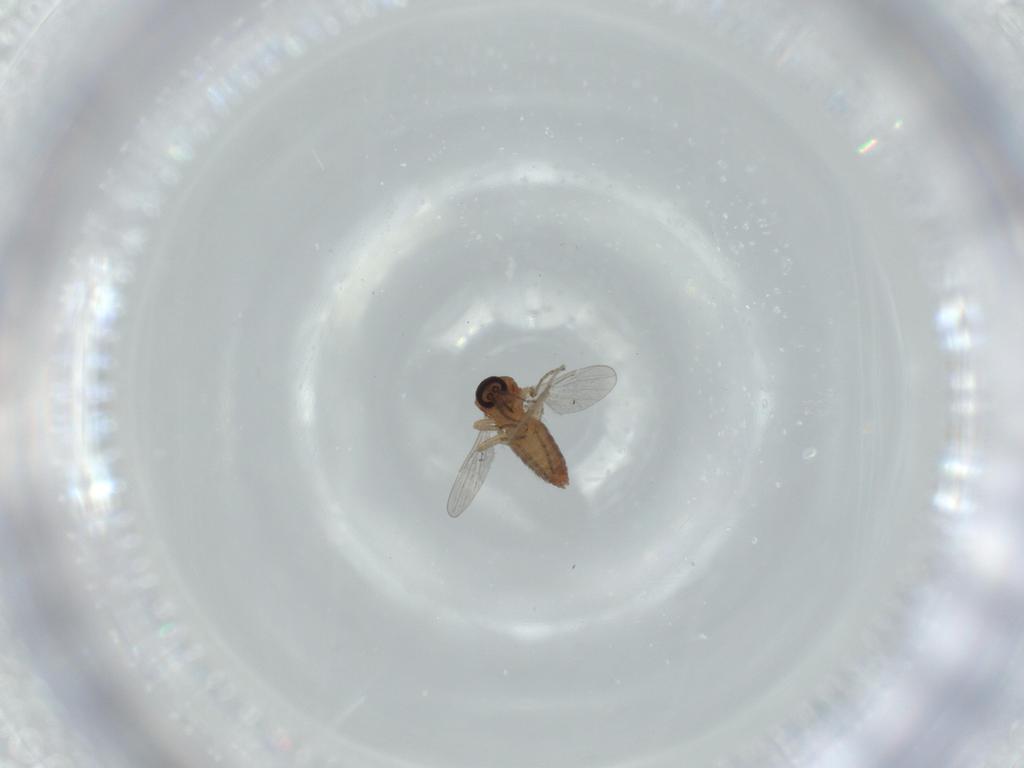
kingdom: Animalia
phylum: Arthropoda
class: Insecta
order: Diptera
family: Ceratopogonidae
